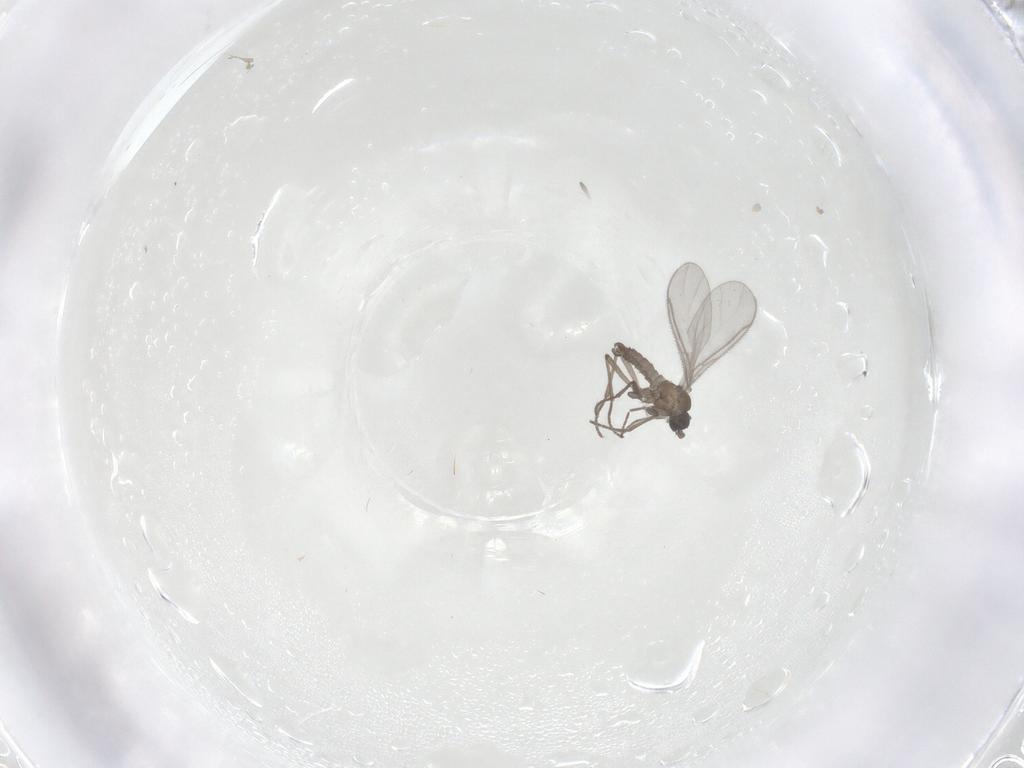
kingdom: Animalia
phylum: Arthropoda
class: Insecta
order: Diptera
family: Sciaridae
